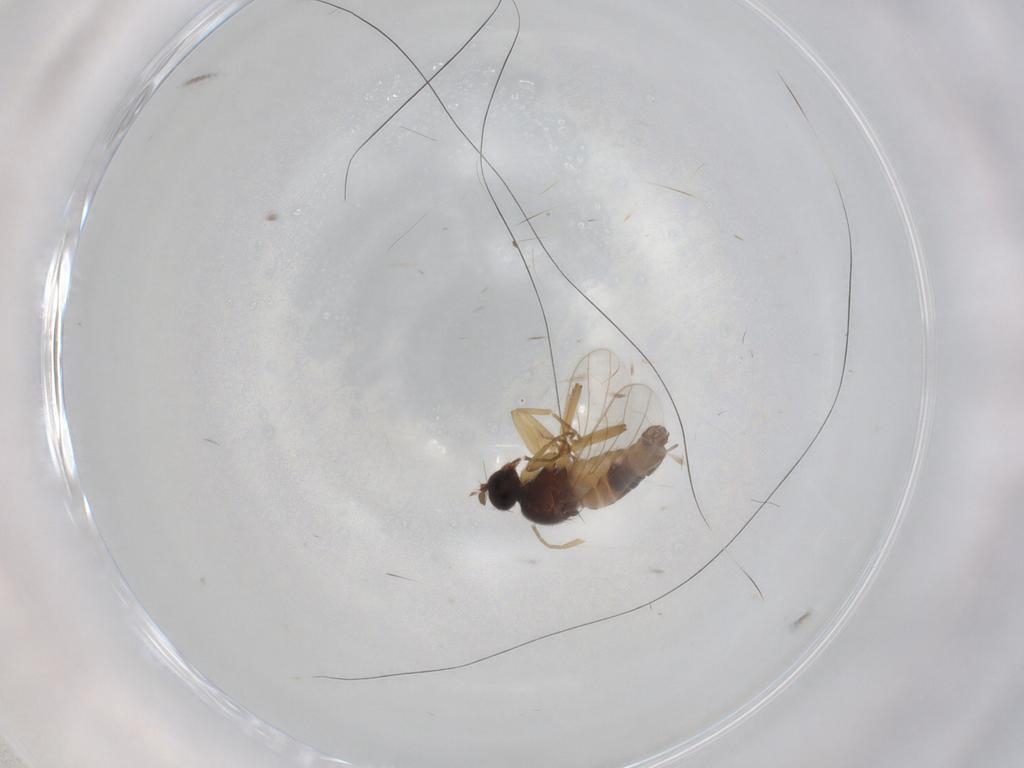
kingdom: Animalia
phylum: Arthropoda
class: Insecta
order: Diptera
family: Hybotidae
